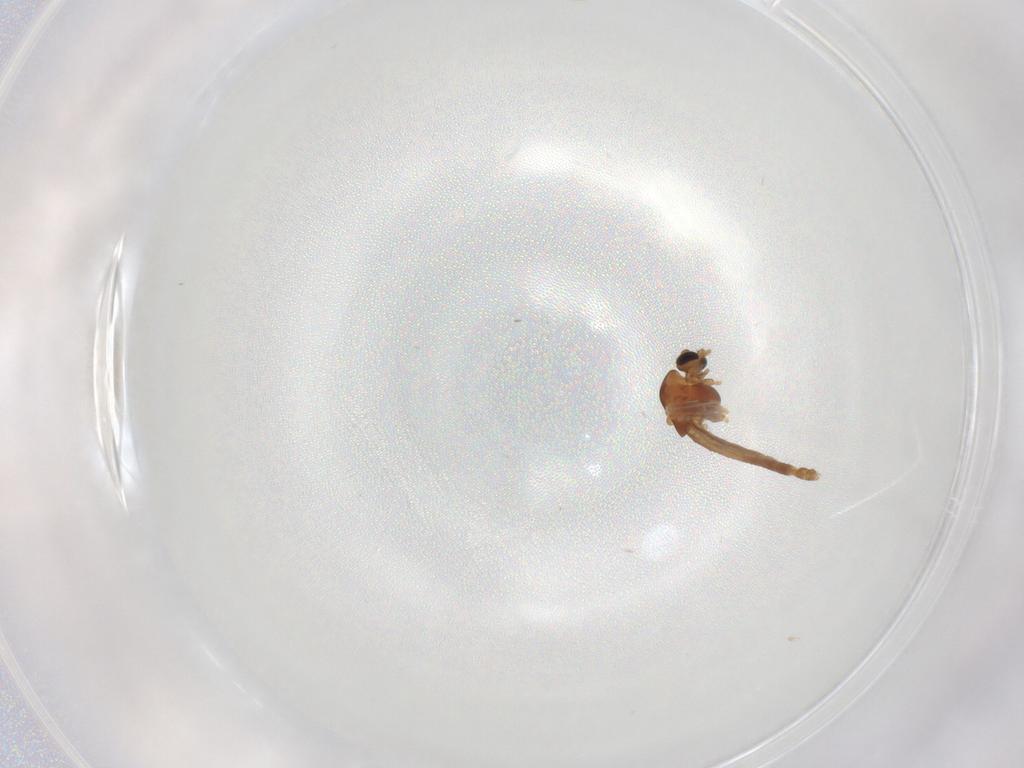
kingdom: Animalia
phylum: Arthropoda
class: Insecta
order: Diptera
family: Chironomidae
